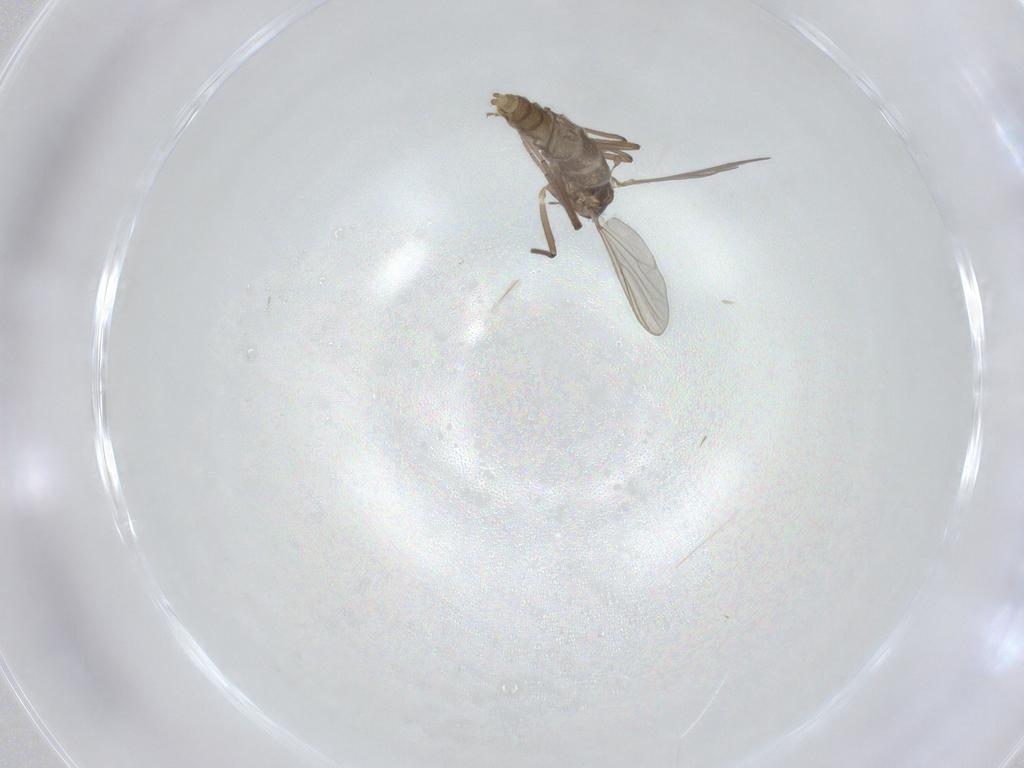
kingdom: Animalia
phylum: Arthropoda
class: Insecta
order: Diptera
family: Chironomidae
